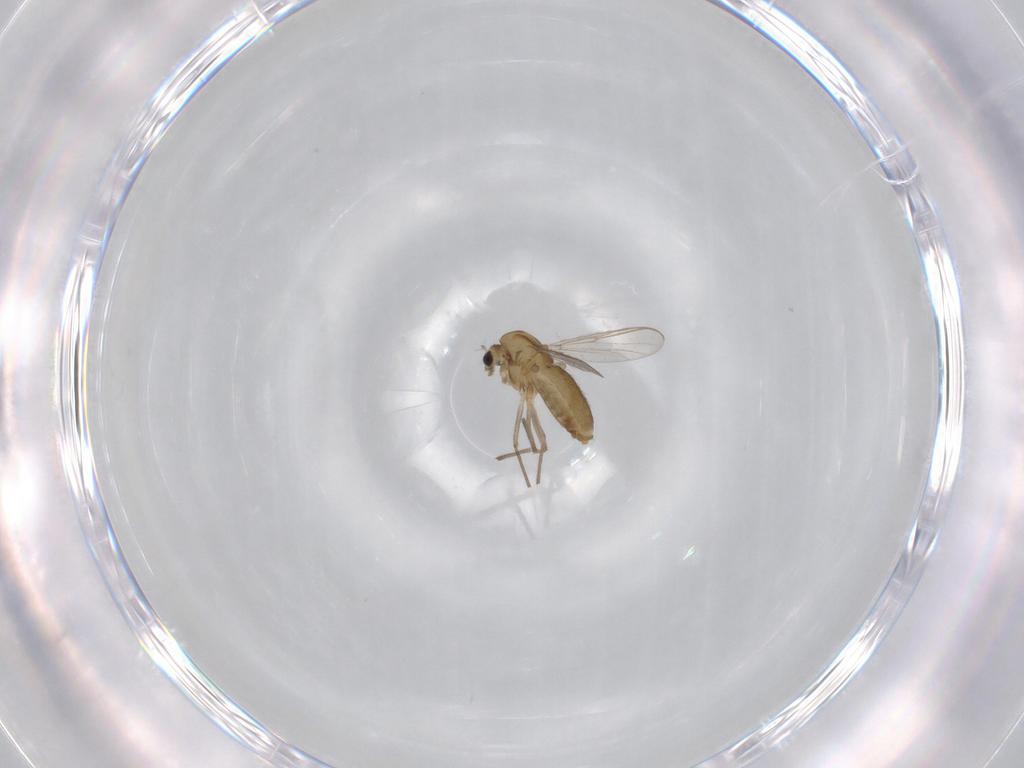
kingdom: Animalia
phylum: Arthropoda
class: Insecta
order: Diptera
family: Chironomidae
